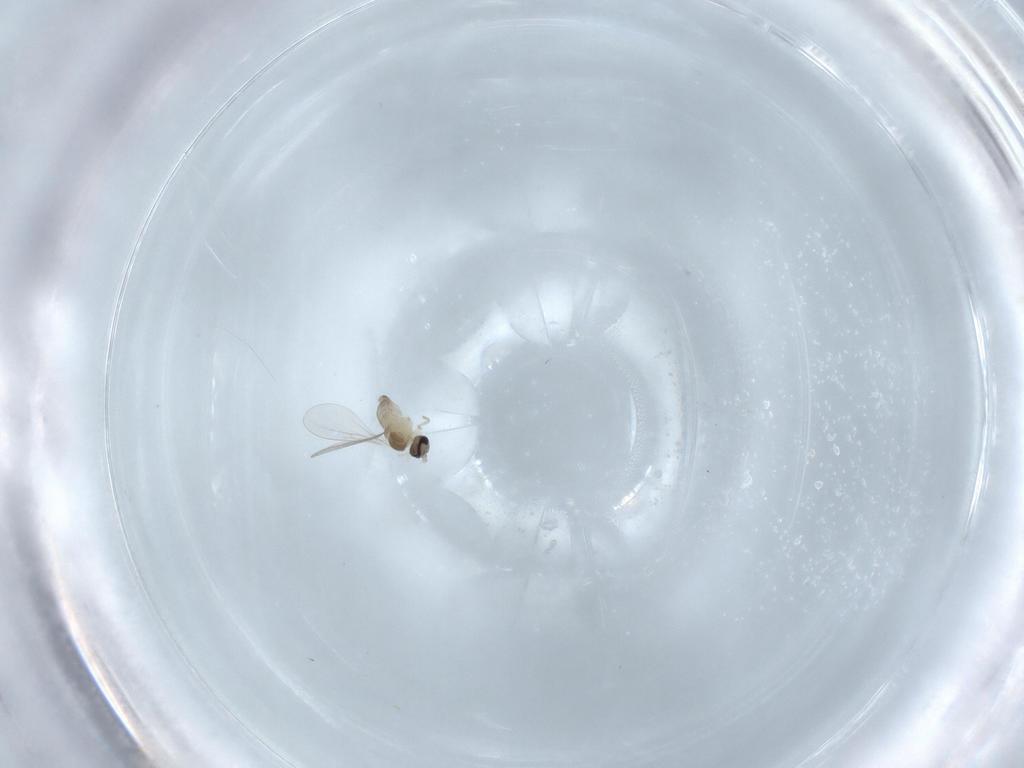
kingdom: Animalia
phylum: Arthropoda
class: Insecta
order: Diptera
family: Cecidomyiidae
